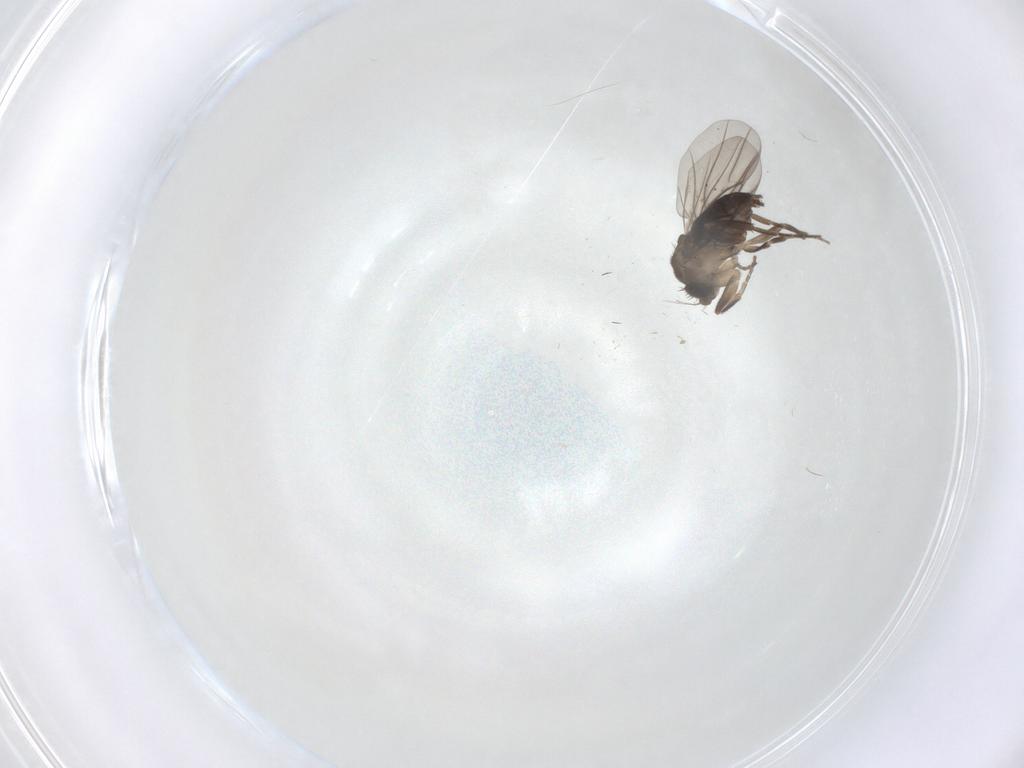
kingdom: Animalia
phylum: Arthropoda
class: Insecta
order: Diptera
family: Phoridae
